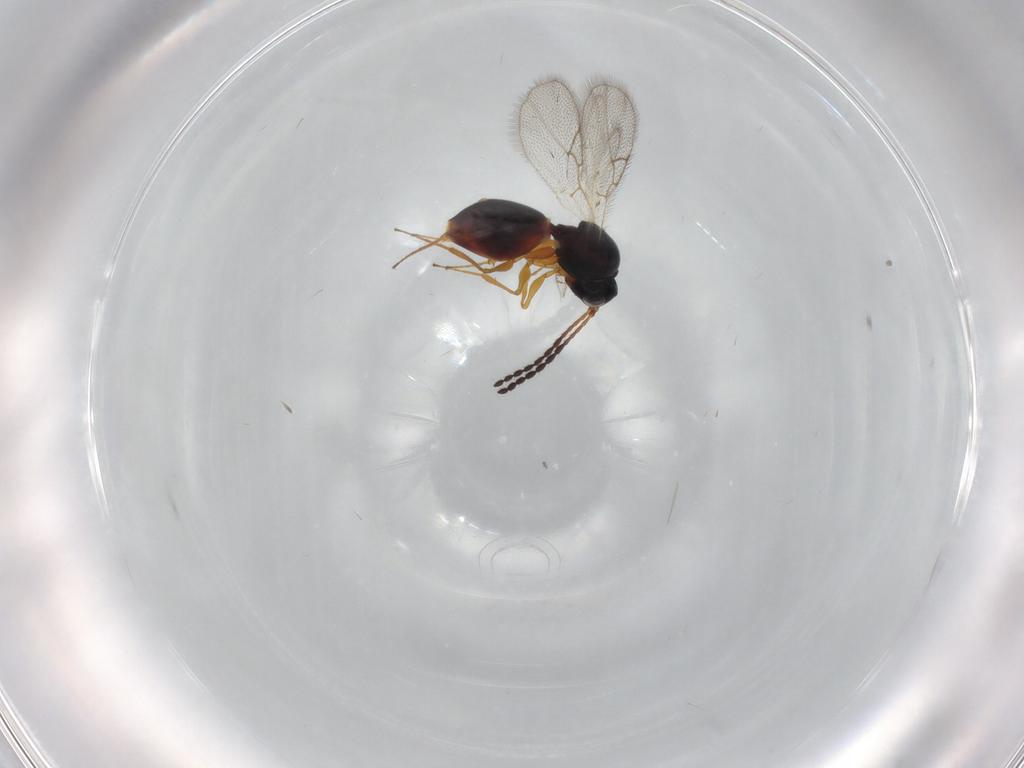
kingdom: Animalia
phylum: Arthropoda
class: Insecta
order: Hymenoptera
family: Figitidae
